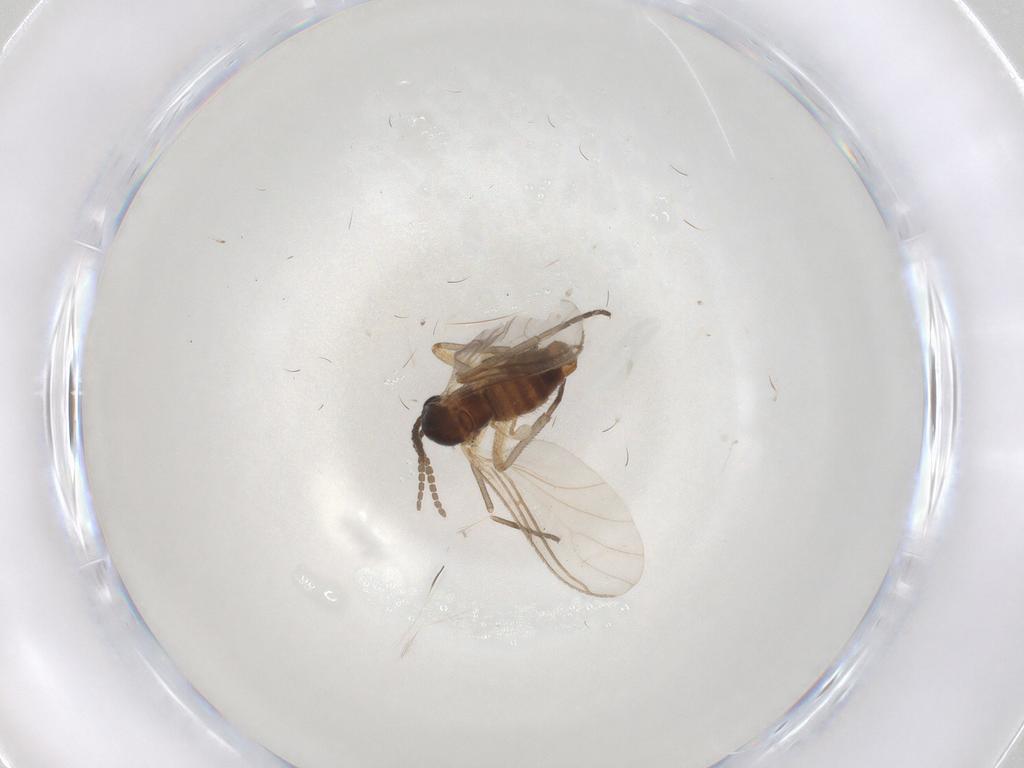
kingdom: Animalia
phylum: Arthropoda
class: Insecta
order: Diptera
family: Sciaridae
